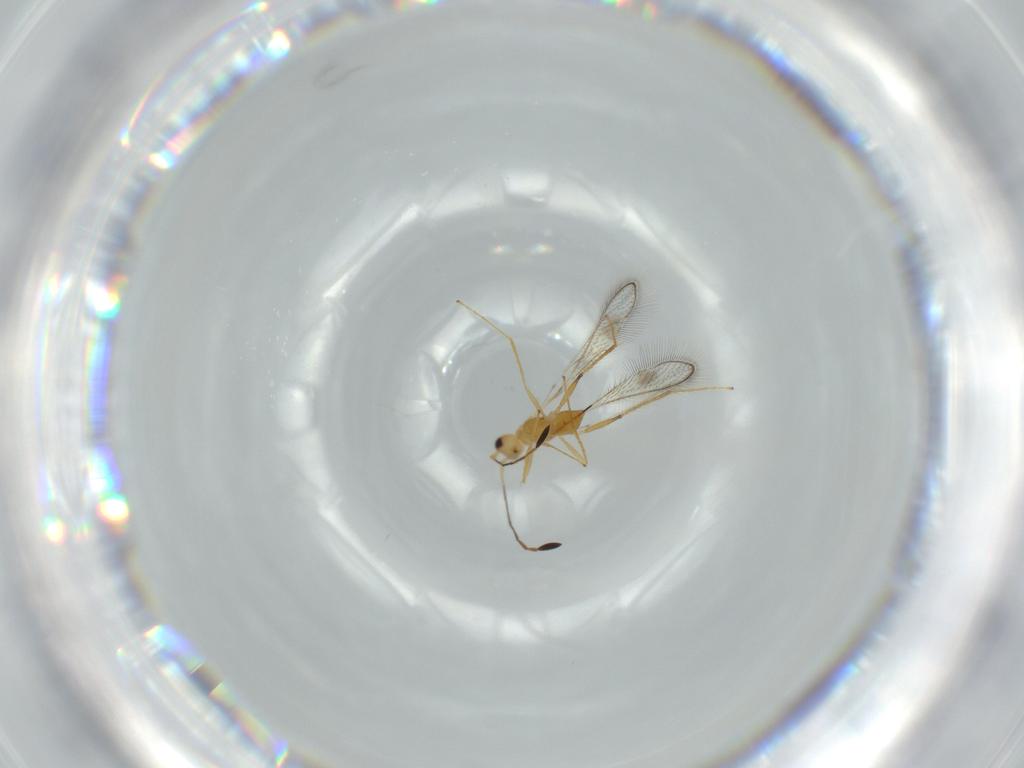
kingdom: Animalia
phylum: Arthropoda
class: Insecta
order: Hymenoptera
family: Mymaridae
